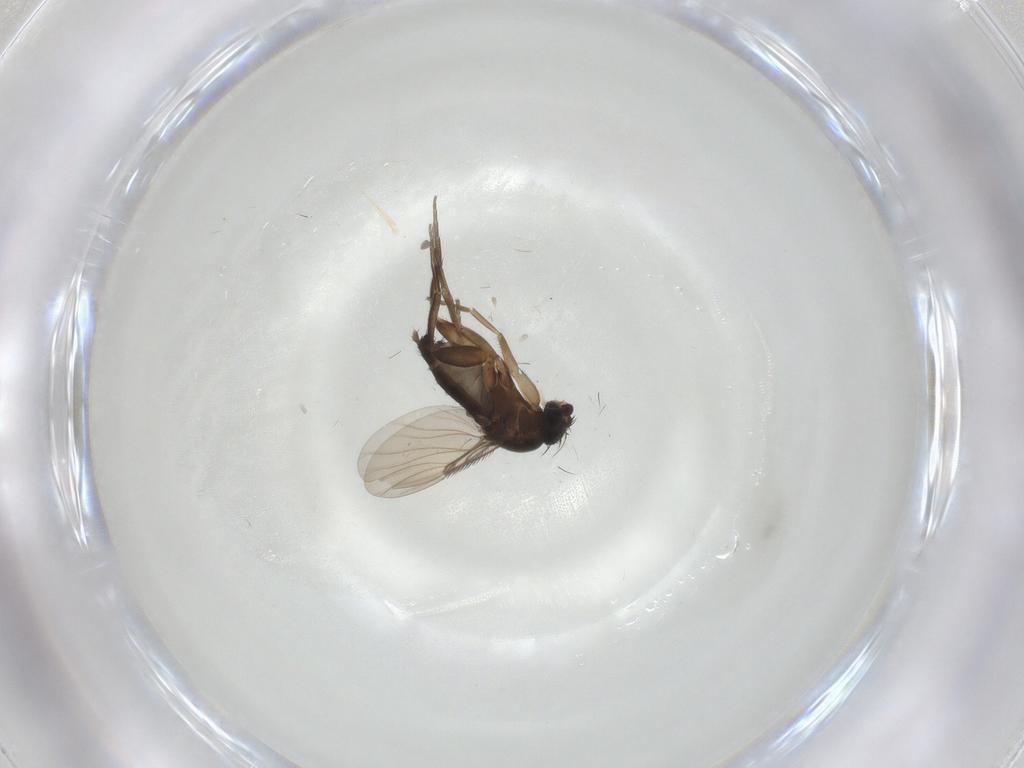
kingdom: Animalia
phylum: Arthropoda
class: Insecta
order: Diptera
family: Phoridae
